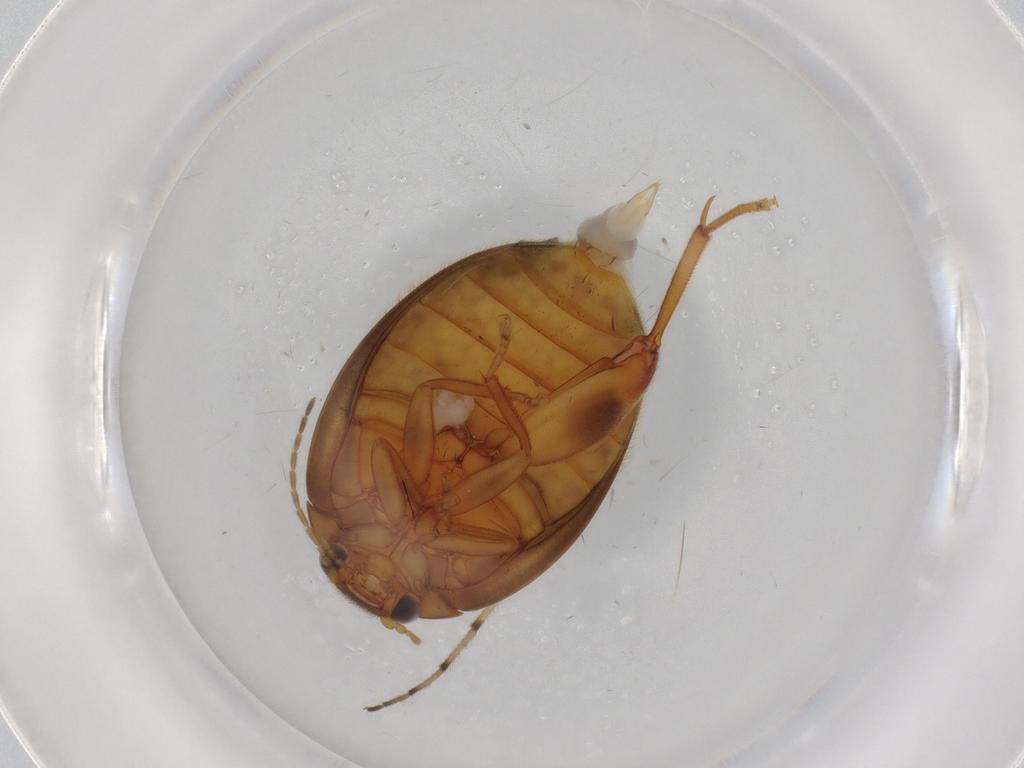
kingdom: Animalia
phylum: Arthropoda
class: Insecta
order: Coleoptera
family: Scirtidae
